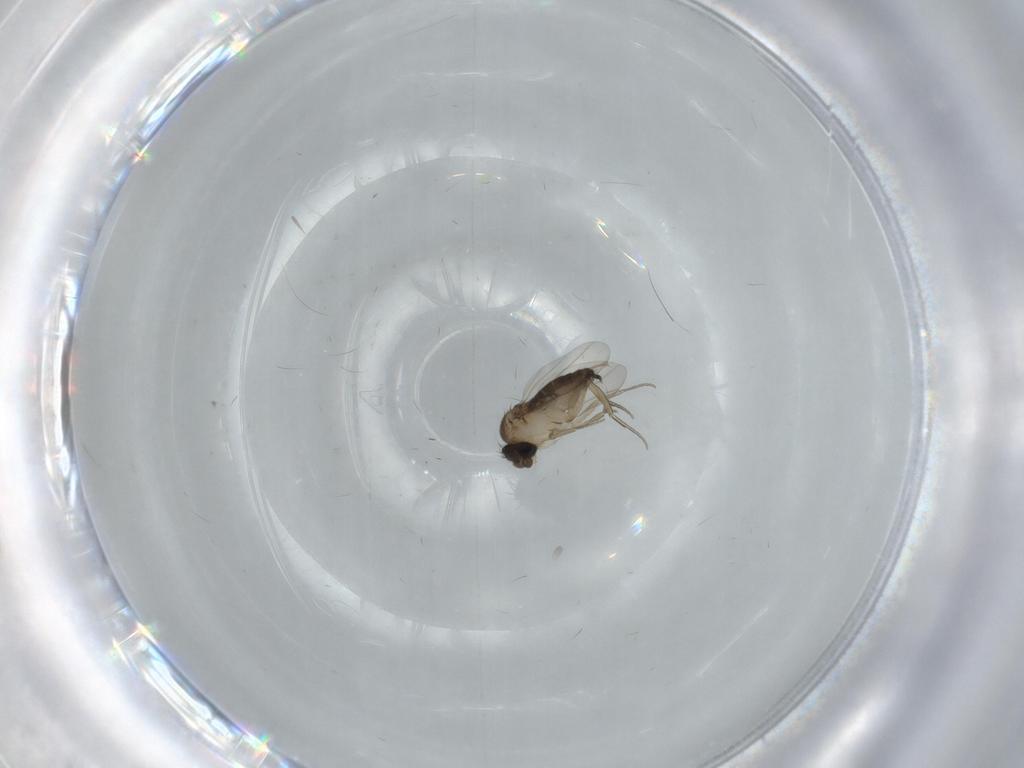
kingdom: Animalia
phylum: Arthropoda
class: Insecta
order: Diptera
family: Phoridae
